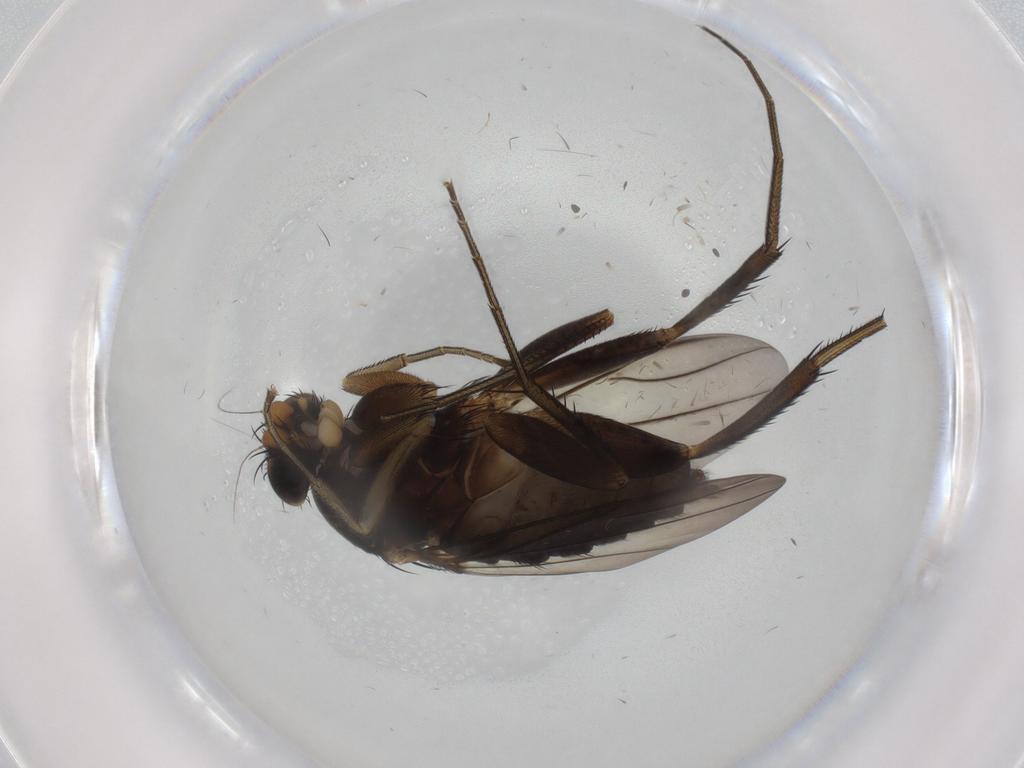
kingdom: Animalia
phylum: Arthropoda
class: Insecta
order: Diptera
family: Phoridae
